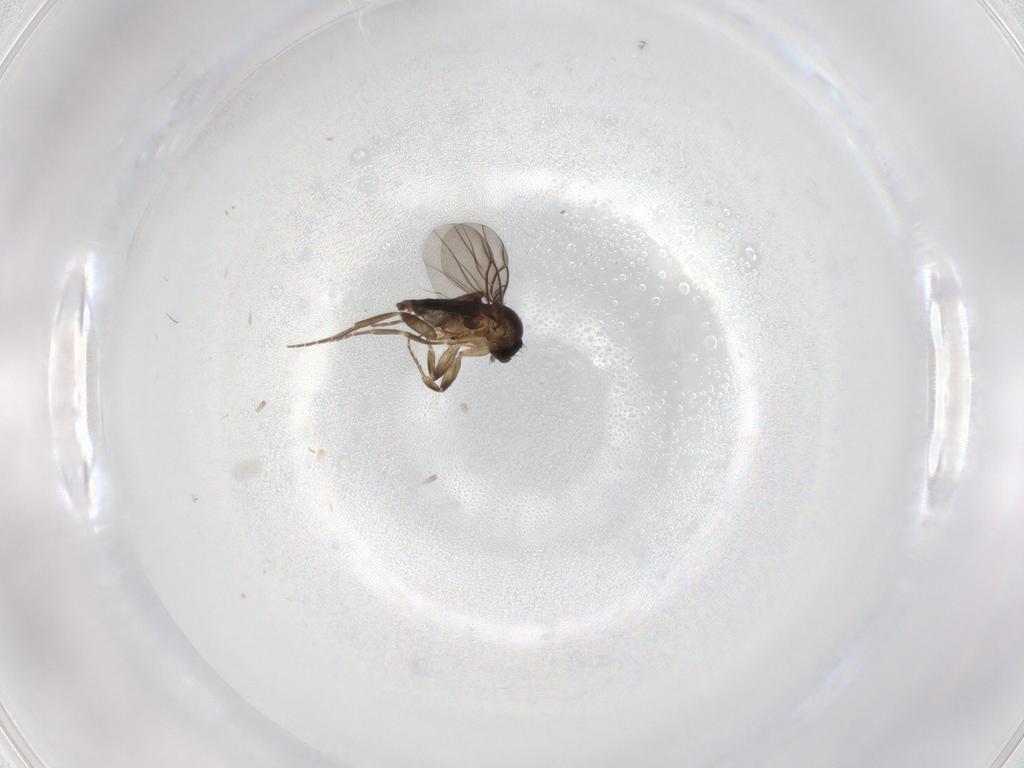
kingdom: Animalia
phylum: Arthropoda
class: Insecta
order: Diptera
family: Phoridae
